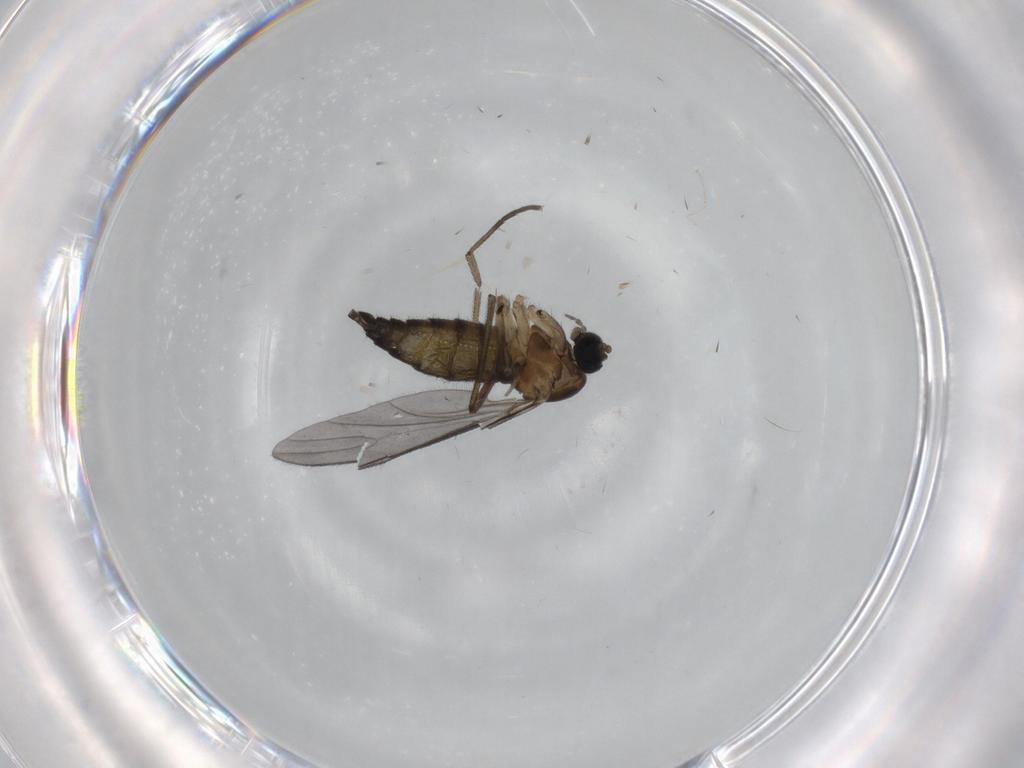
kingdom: Animalia
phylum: Arthropoda
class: Insecta
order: Diptera
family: Sciaridae
